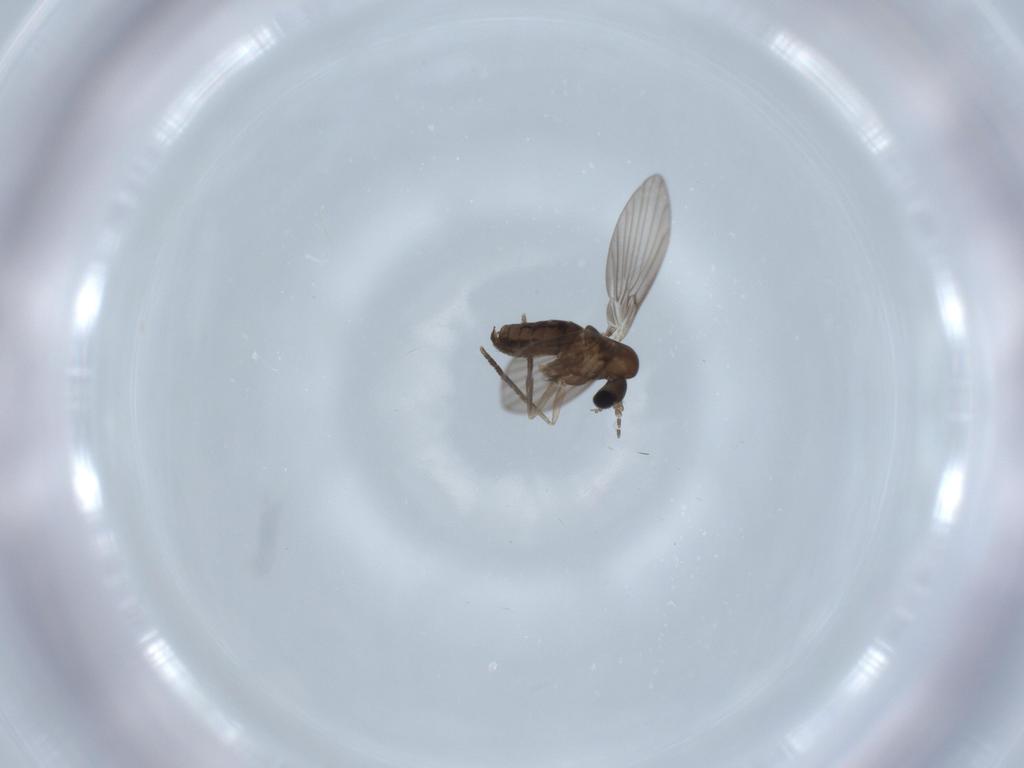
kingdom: Animalia
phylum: Arthropoda
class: Insecta
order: Diptera
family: Psychodidae
